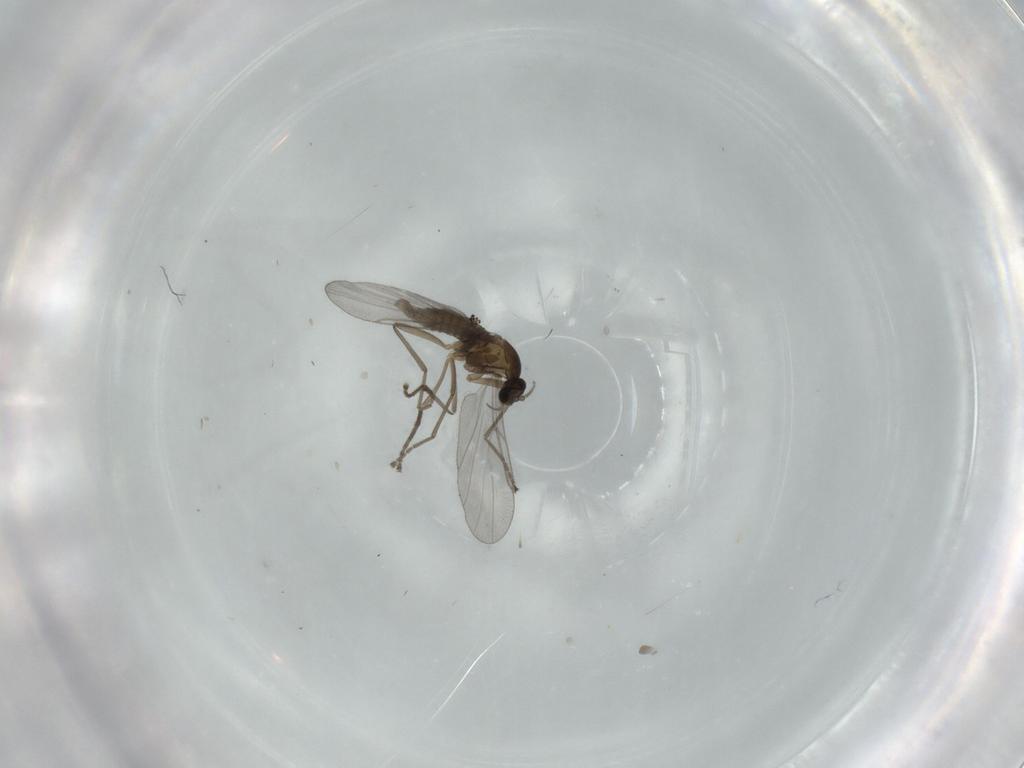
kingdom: Animalia
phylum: Arthropoda
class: Insecta
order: Diptera
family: Cecidomyiidae
